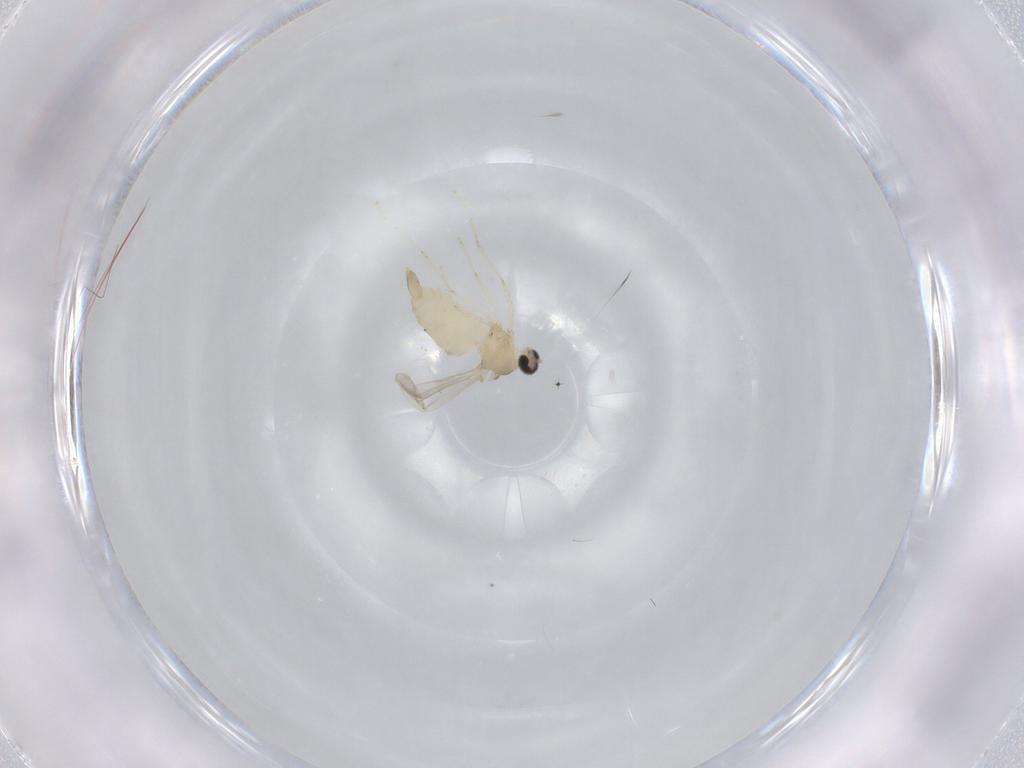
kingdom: Animalia
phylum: Arthropoda
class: Insecta
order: Diptera
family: Cecidomyiidae
